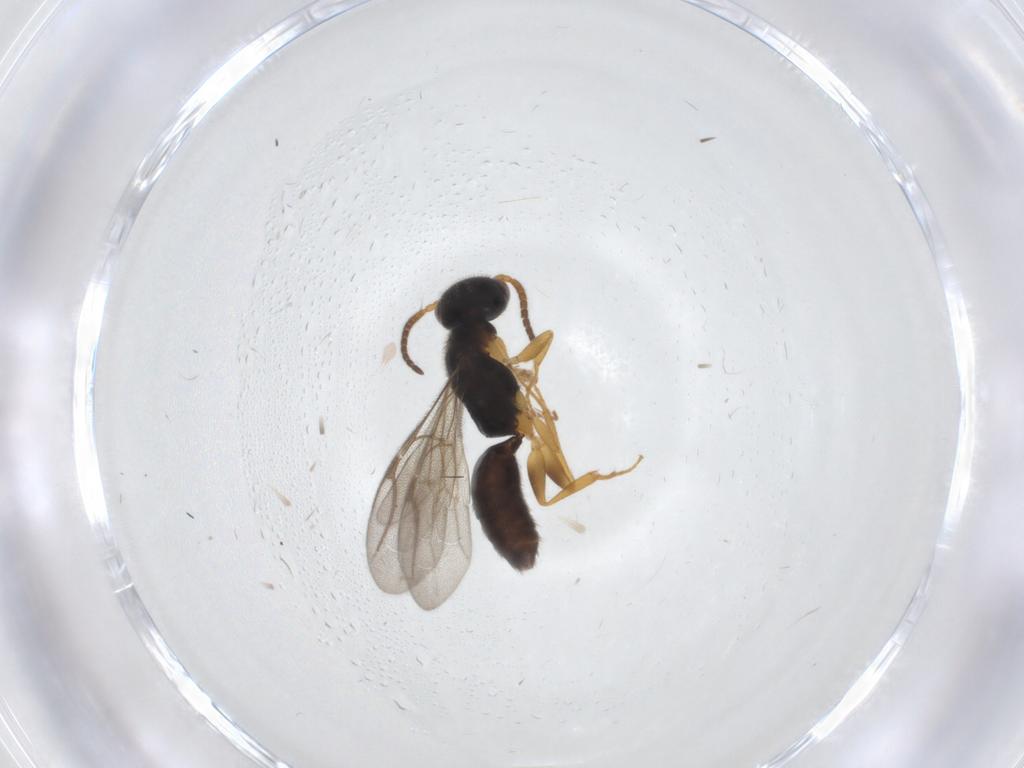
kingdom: Animalia
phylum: Arthropoda
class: Insecta
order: Hymenoptera
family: Bethylidae
